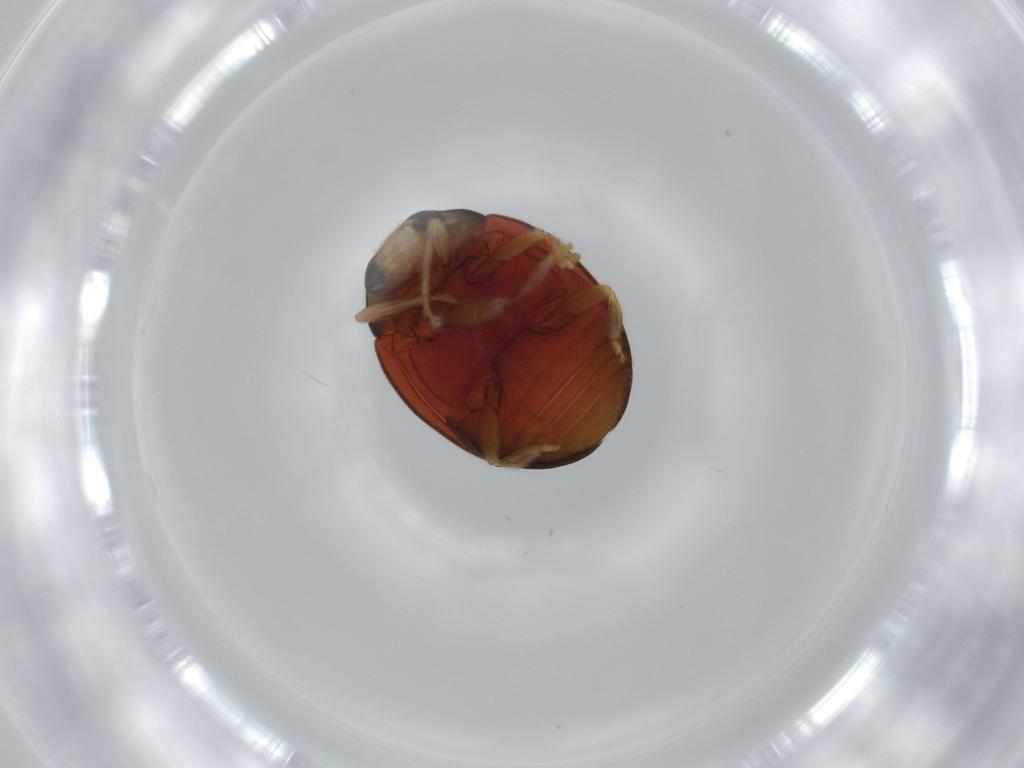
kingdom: Animalia
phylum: Arthropoda
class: Insecta
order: Coleoptera
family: Coccinellidae
